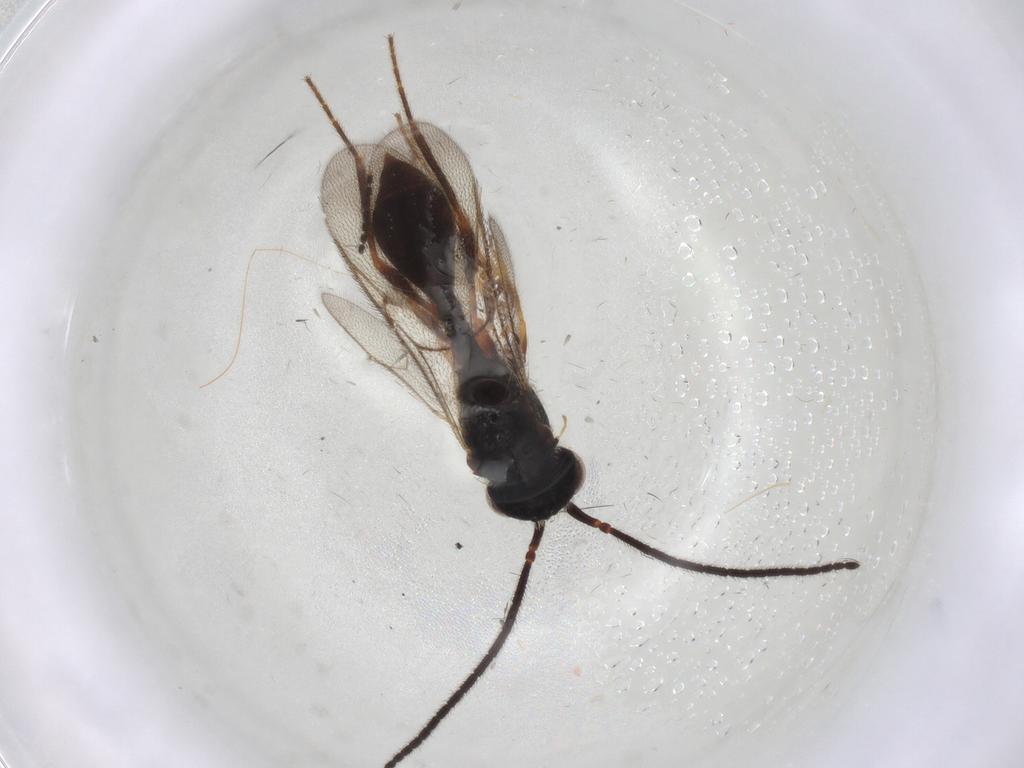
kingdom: Animalia
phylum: Arthropoda
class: Insecta
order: Hymenoptera
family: Diapriidae
